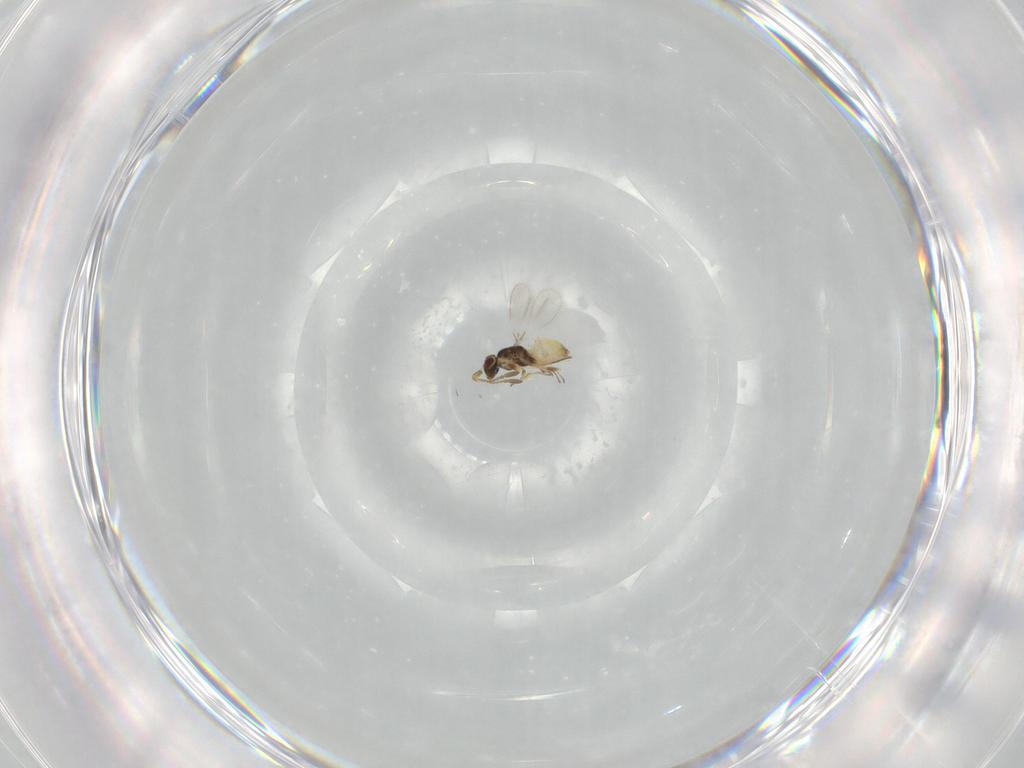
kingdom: Animalia
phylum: Arthropoda
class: Insecta
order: Hymenoptera
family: Mymaridae
